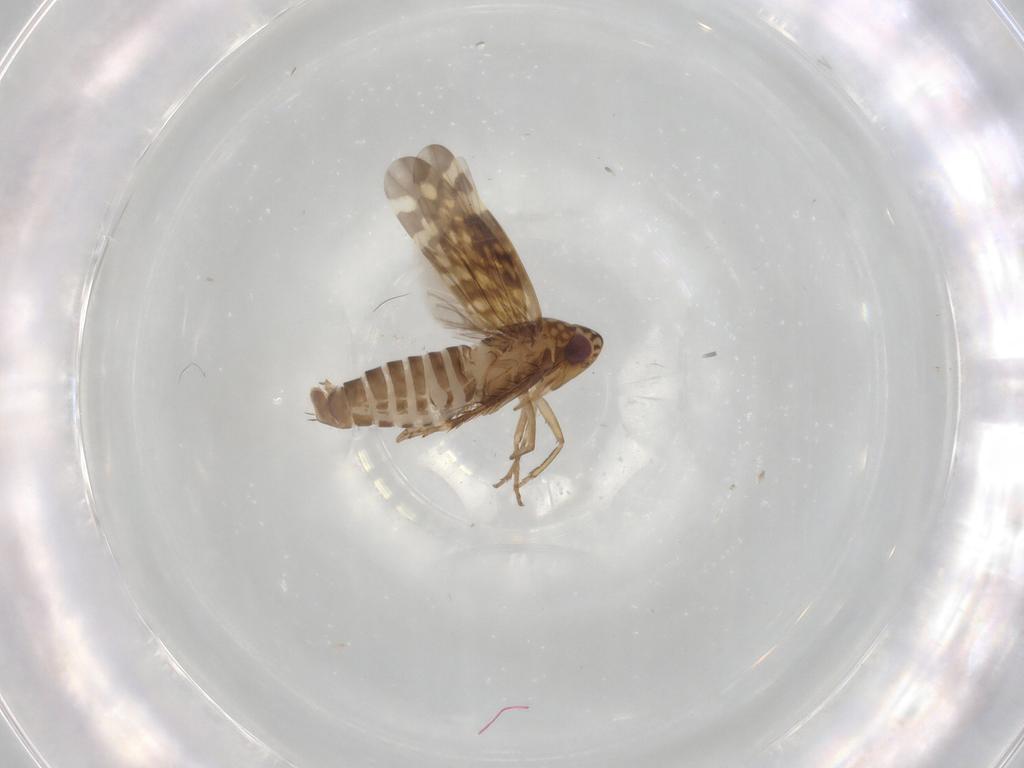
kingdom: Animalia
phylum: Arthropoda
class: Insecta
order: Hemiptera
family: Cicadellidae
